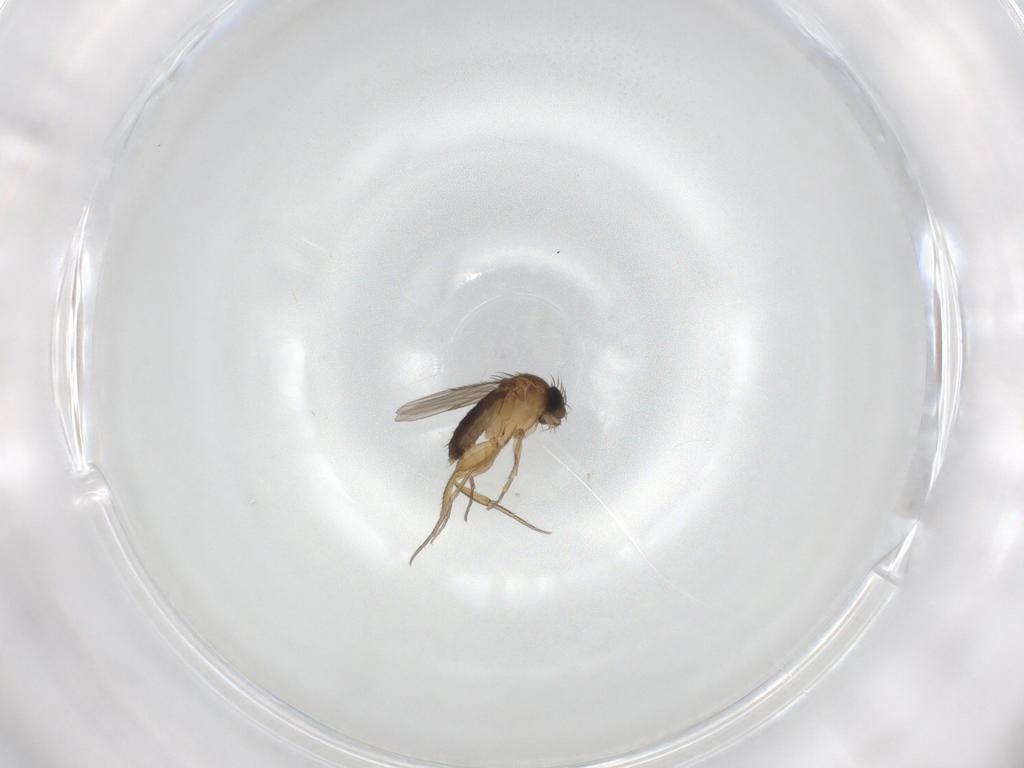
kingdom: Animalia
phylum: Arthropoda
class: Insecta
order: Diptera
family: Phoridae
